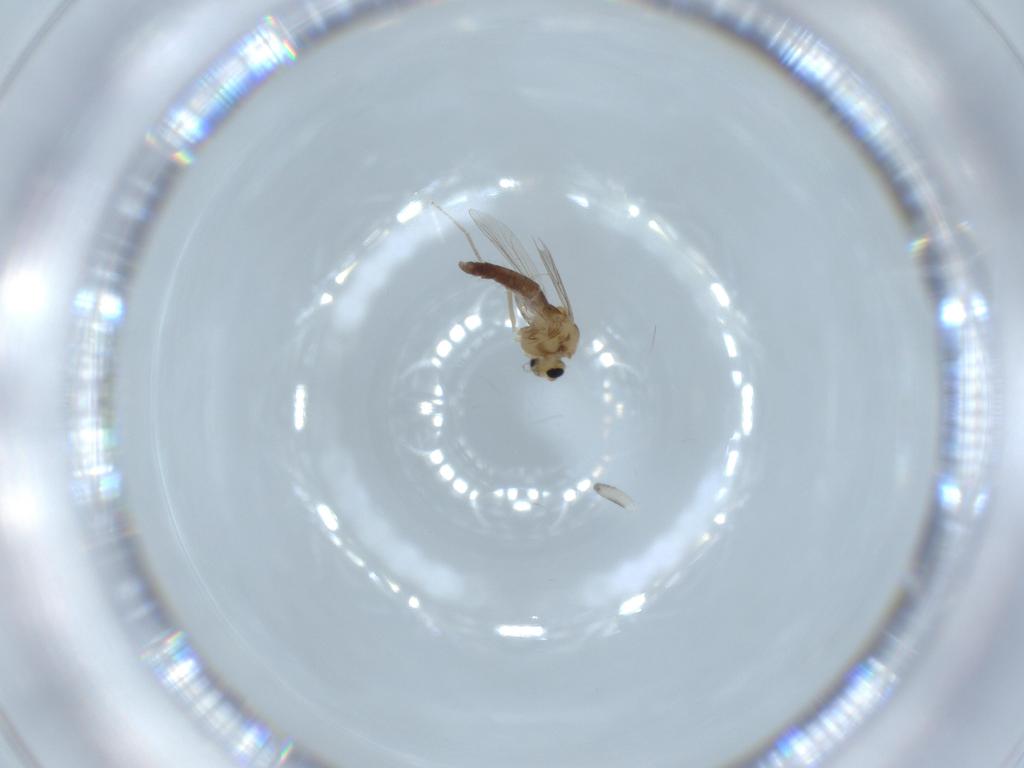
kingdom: Animalia
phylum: Arthropoda
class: Insecta
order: Diptera
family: Chironomidae
